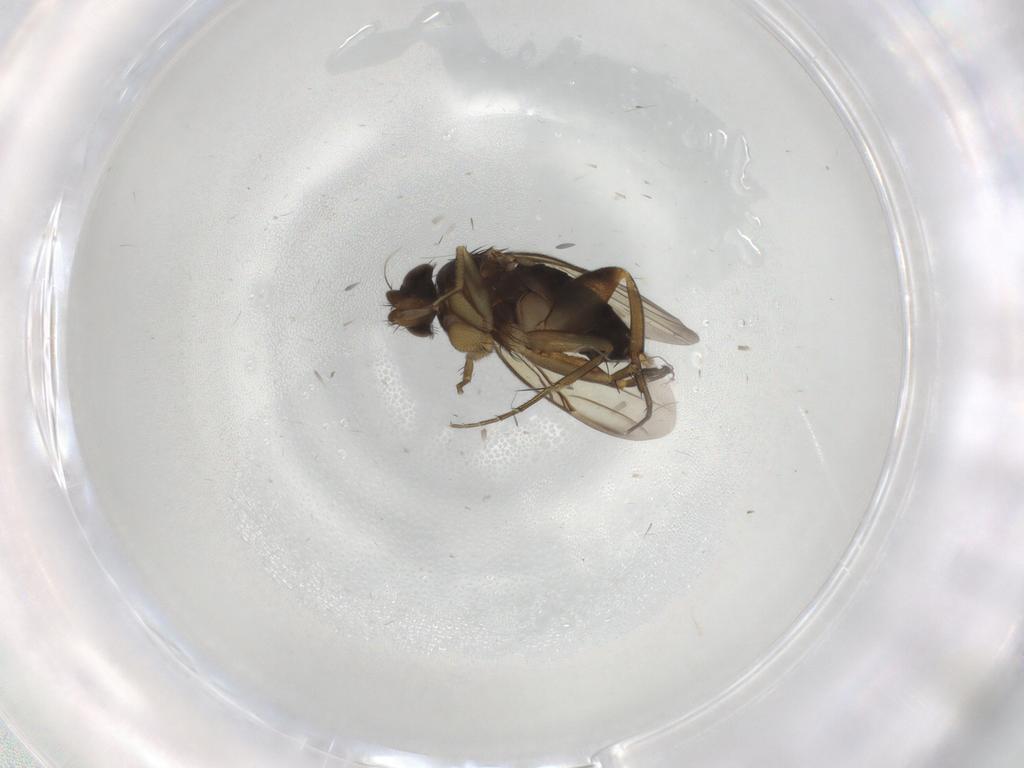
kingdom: Animalia
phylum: Arthropoda
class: Insecta
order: Diptera
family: Phoridae
